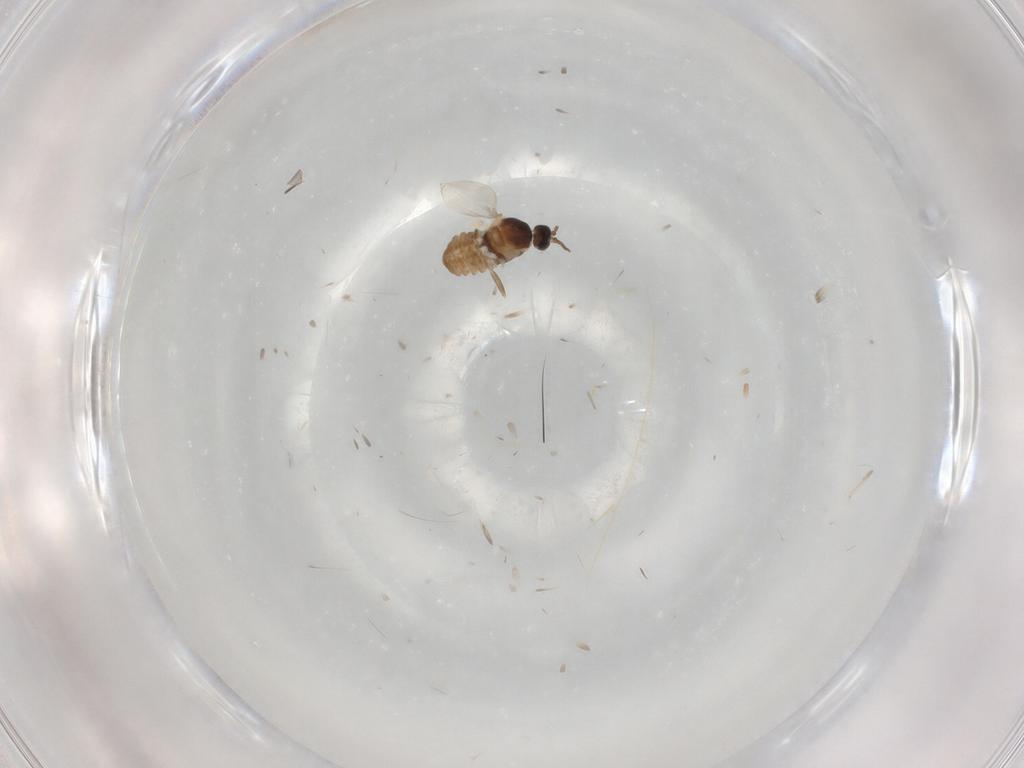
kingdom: Animalia
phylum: Arthropoda
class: Insecta
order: Diptera
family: Cecidomyiidae
